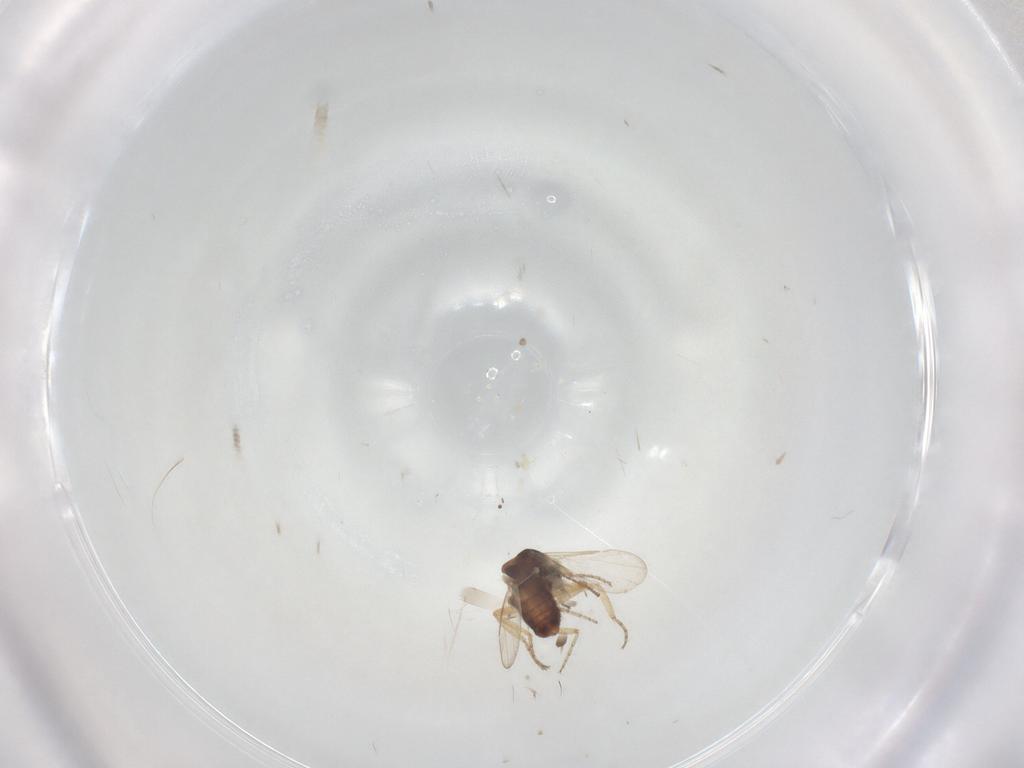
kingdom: Animalia
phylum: Arthropoda
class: Insecta
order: Diptera
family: Ceratopogonidae
